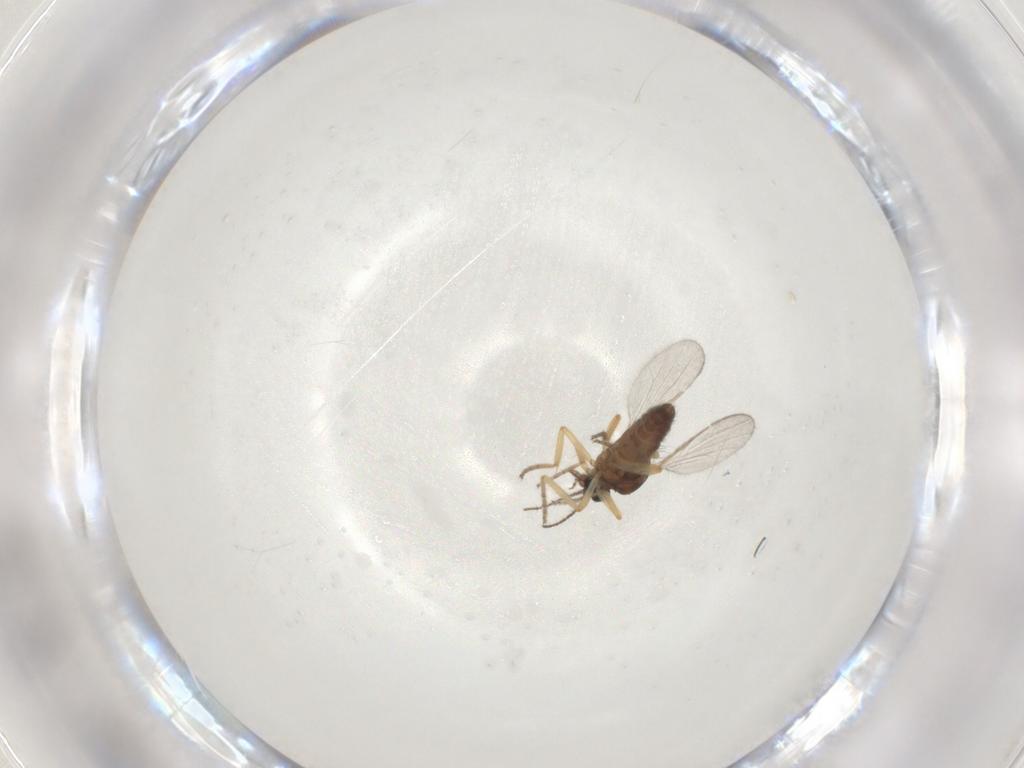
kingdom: Animalia
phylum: Arthropoda
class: Insecta
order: Diptera
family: Ceratopogonidae
